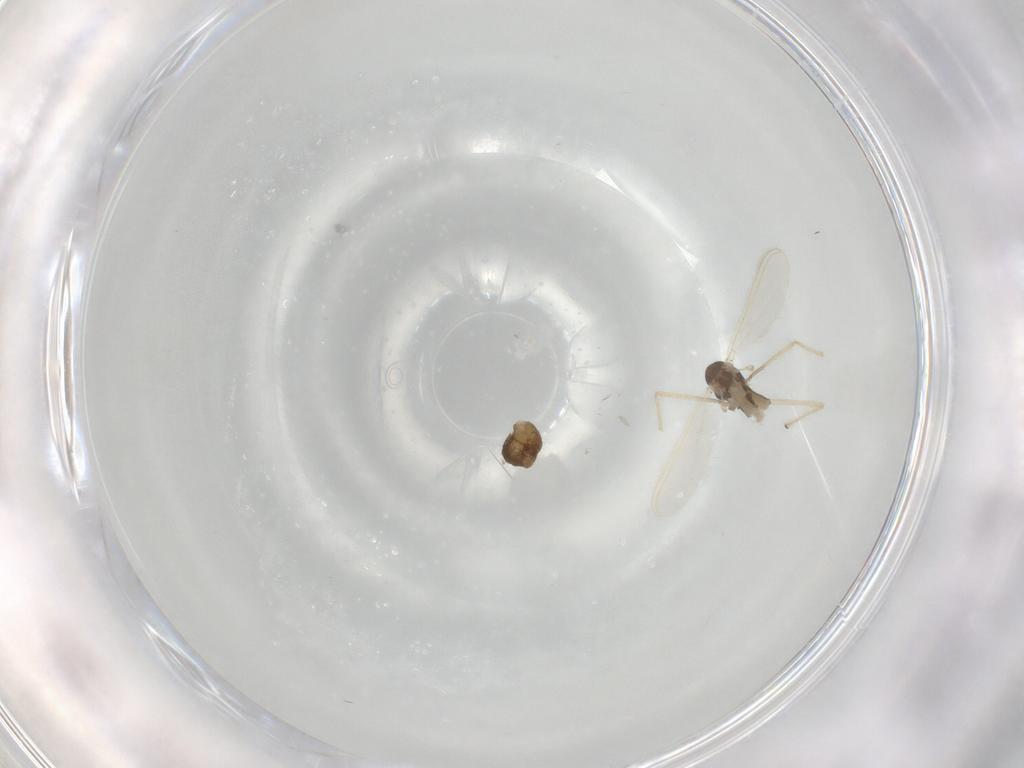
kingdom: Animalia
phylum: Arthropoda
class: Insecta
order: Diptera
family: Chironomidae
